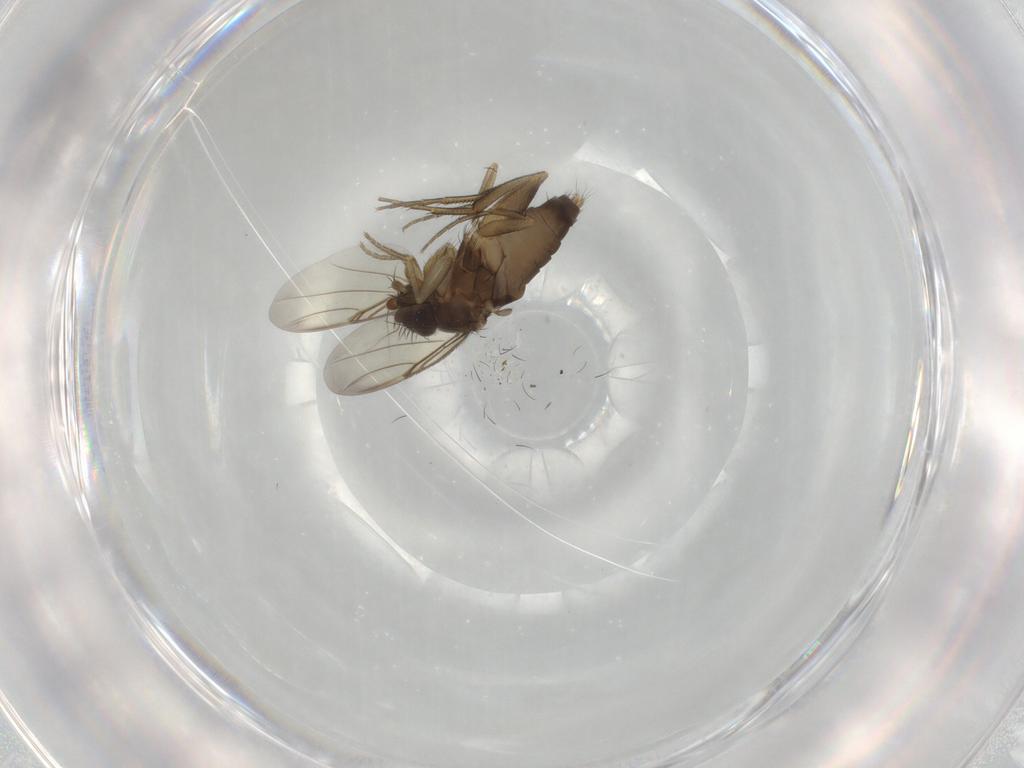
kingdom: Animalia
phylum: Arthropoda
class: Insecta
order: Diptera
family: Phoridae
